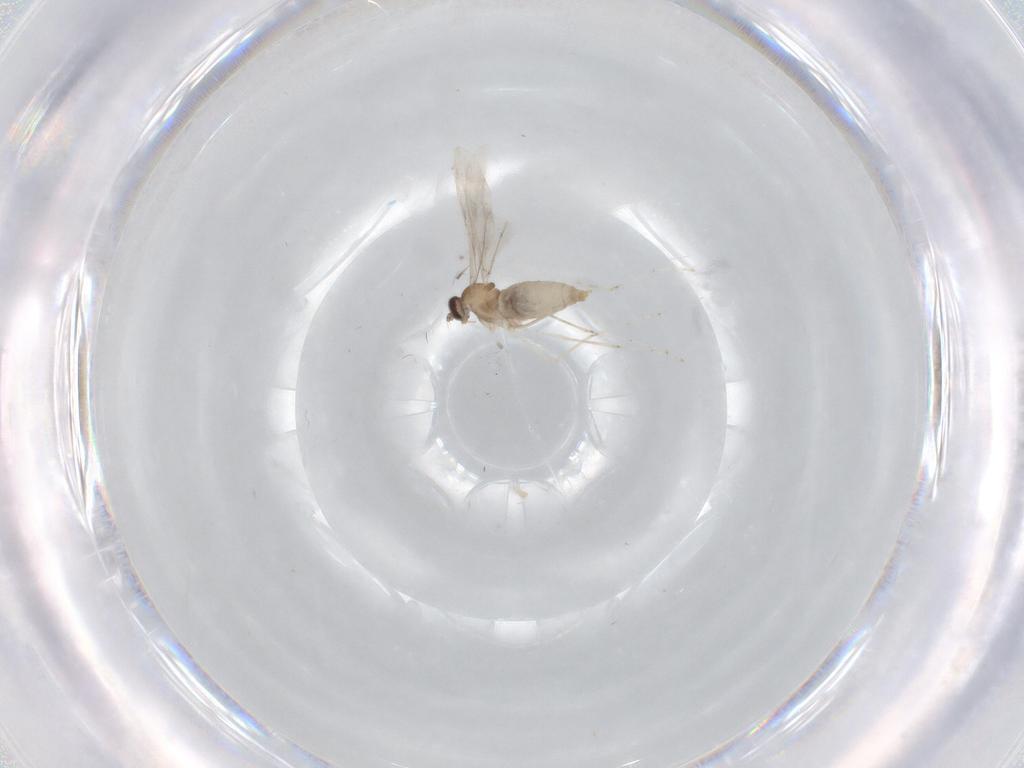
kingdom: Animalia
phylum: Arthropoda
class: Insecta
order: Diptera
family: Cecidomyiidae
